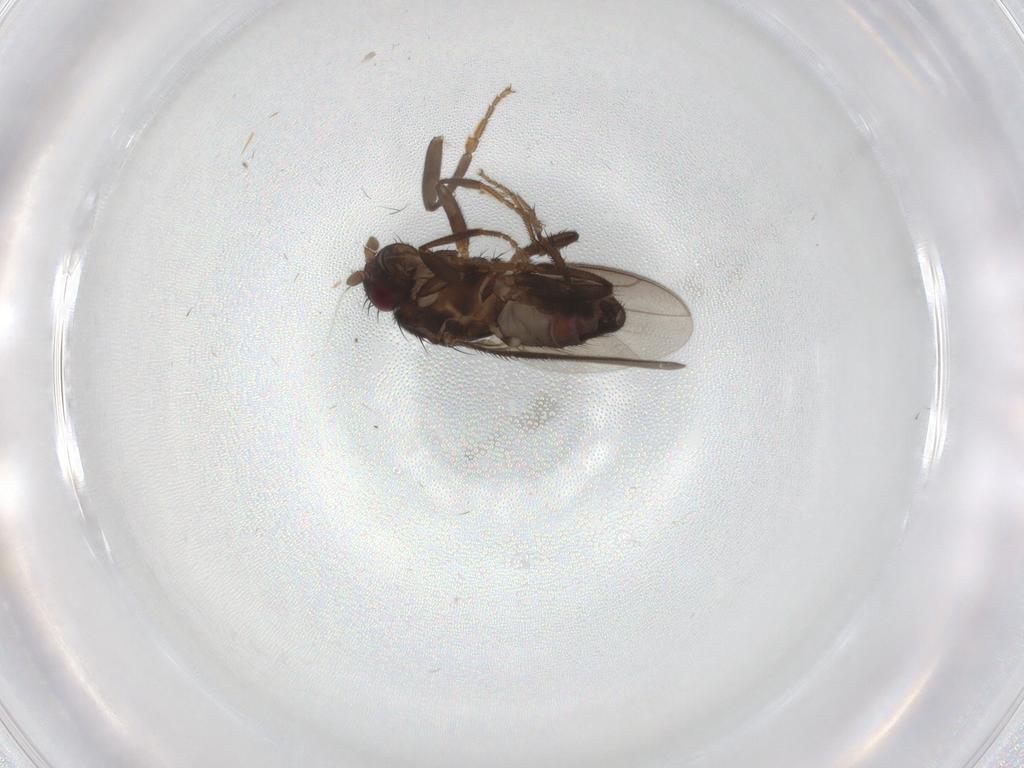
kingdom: Animalia
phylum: Arthropoda
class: Insecta
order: Diptera
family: Sphaeroceridae
